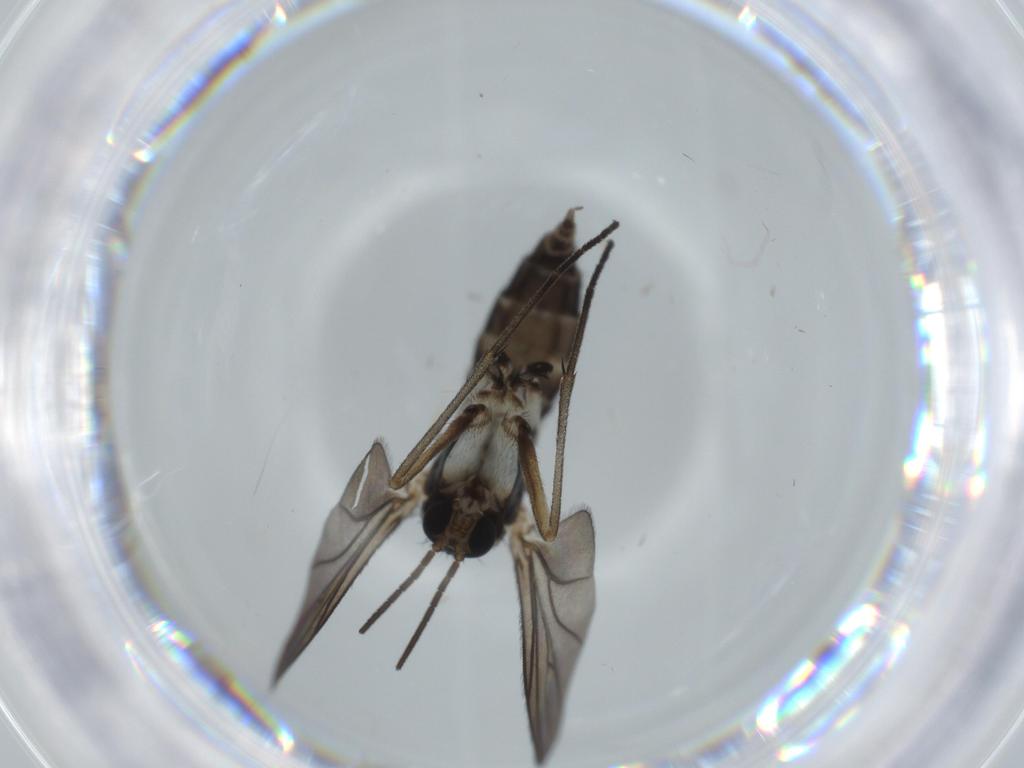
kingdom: Animalia
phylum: Arthropoda
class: Insecta
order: Diptera
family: Sciaridae
